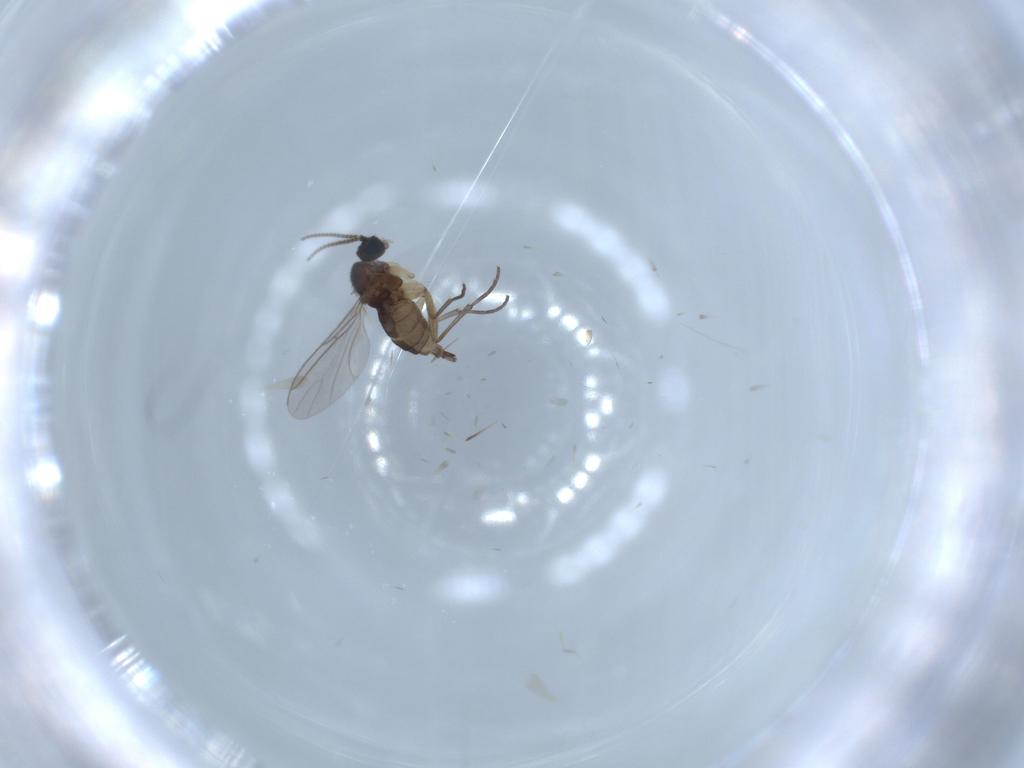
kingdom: Animalia
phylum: Arthropoda
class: Insecta
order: Diptera
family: Sciaridae
